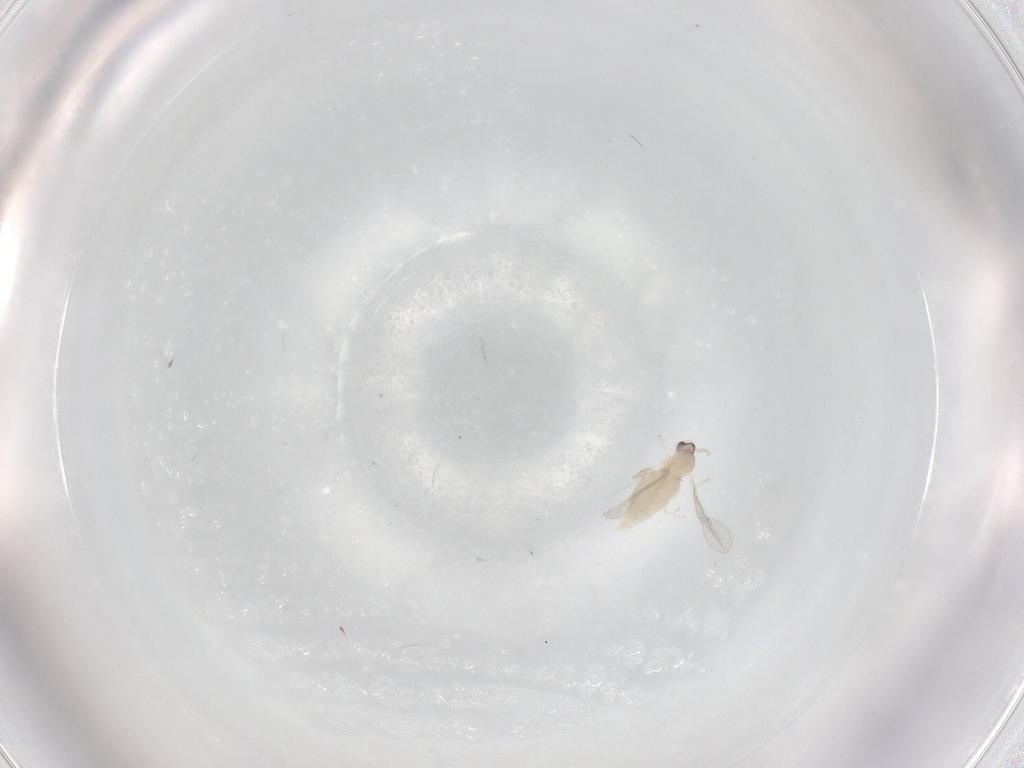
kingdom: Animalia
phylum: Arthropoda
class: Insecta
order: Diptera
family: Cecidomyiidae
